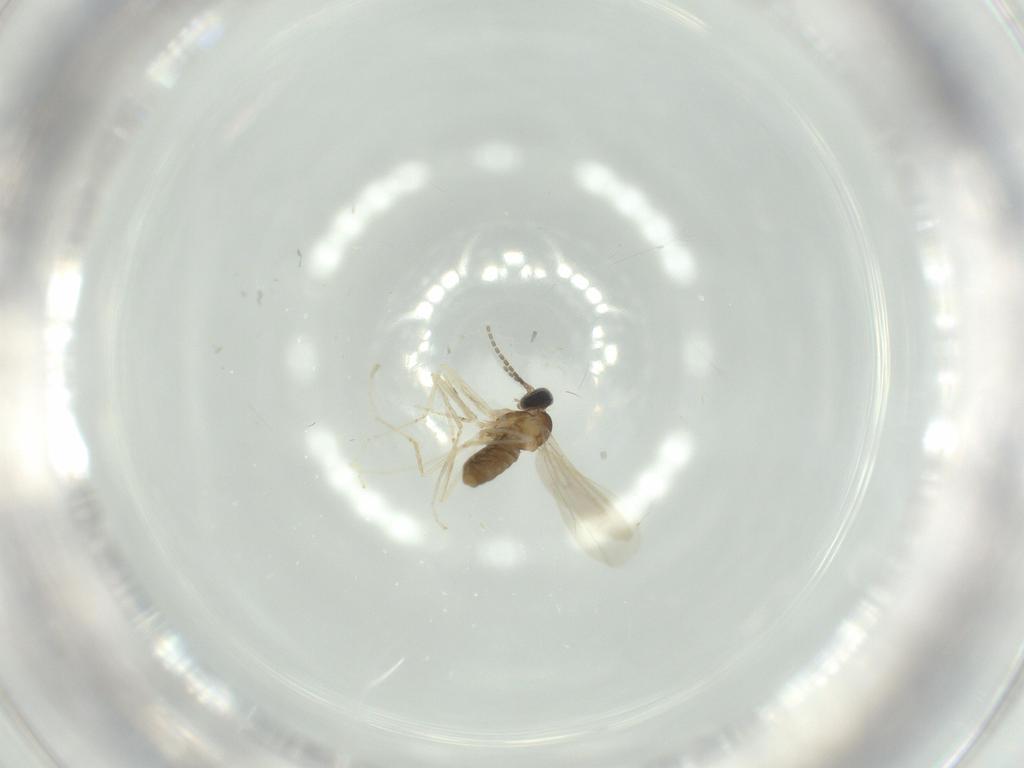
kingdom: Animalia
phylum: Arthropoda
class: Insecta
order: Diptera
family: Cecidomyiidae
